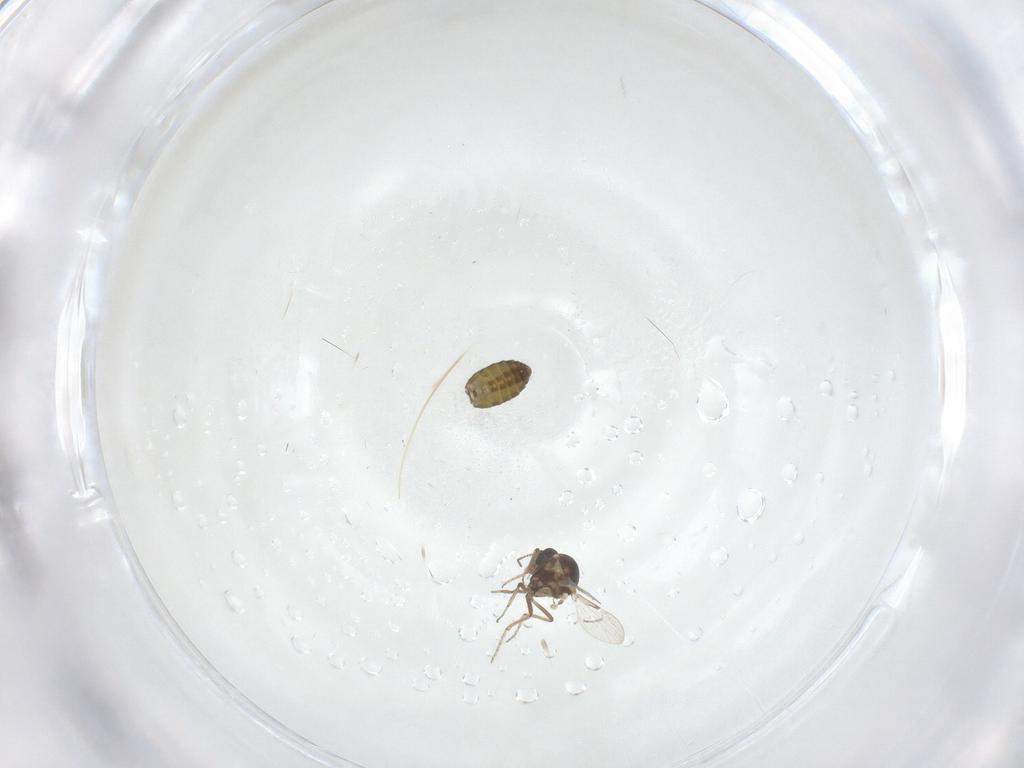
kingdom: Animalia
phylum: Arthropoda
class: Insecta
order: Diptera
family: Ceratopogonidae
